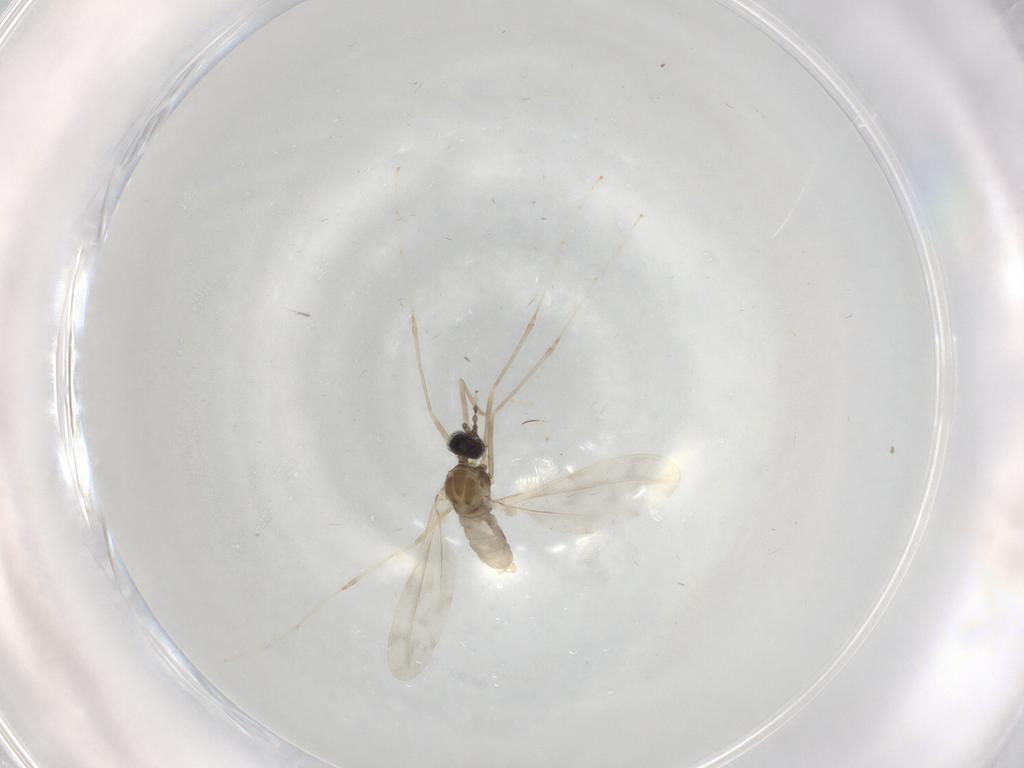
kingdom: Animalia
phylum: Arthropoda
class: Insecta
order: Diptera
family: Cecidomyiidae
